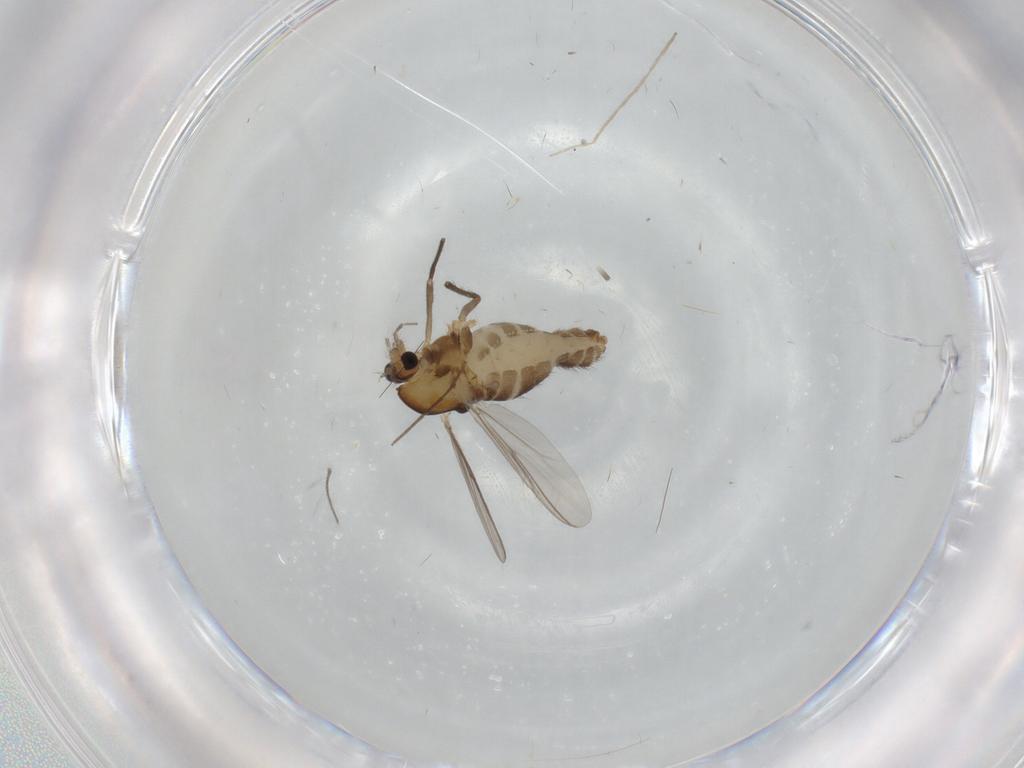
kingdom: Animalia
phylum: Arthropoda
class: Insecta
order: Diptera
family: Chironomidae
